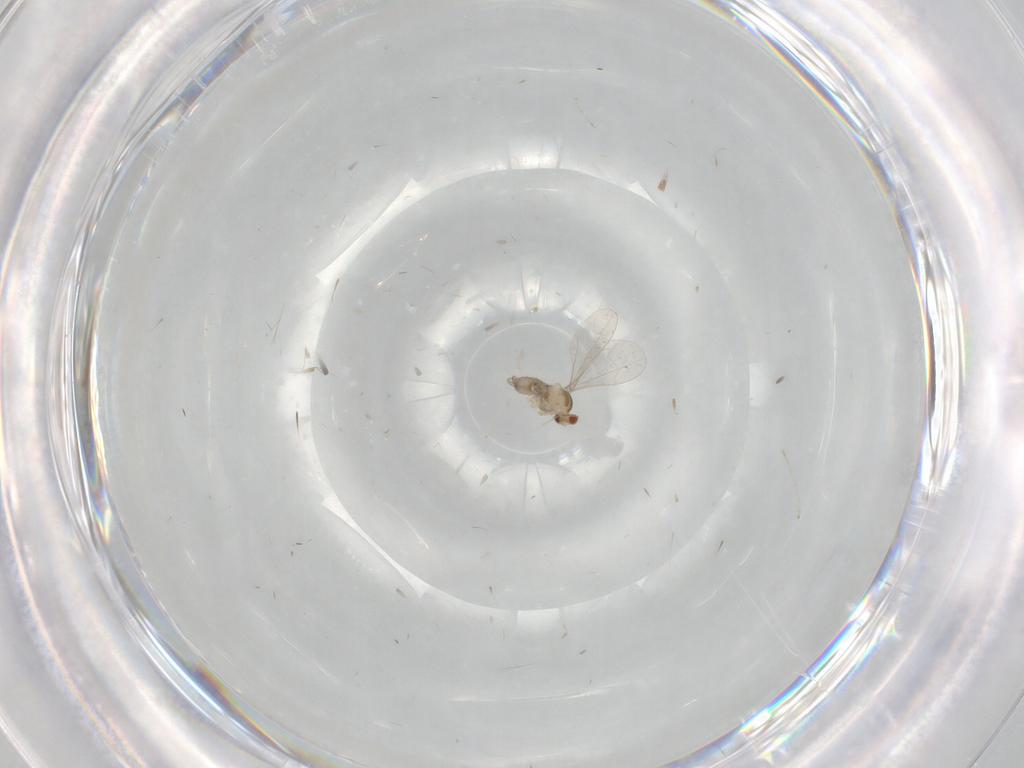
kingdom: Animalia
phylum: Arthropoda
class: Insecta
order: Diptera
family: Cecidomyiidae
